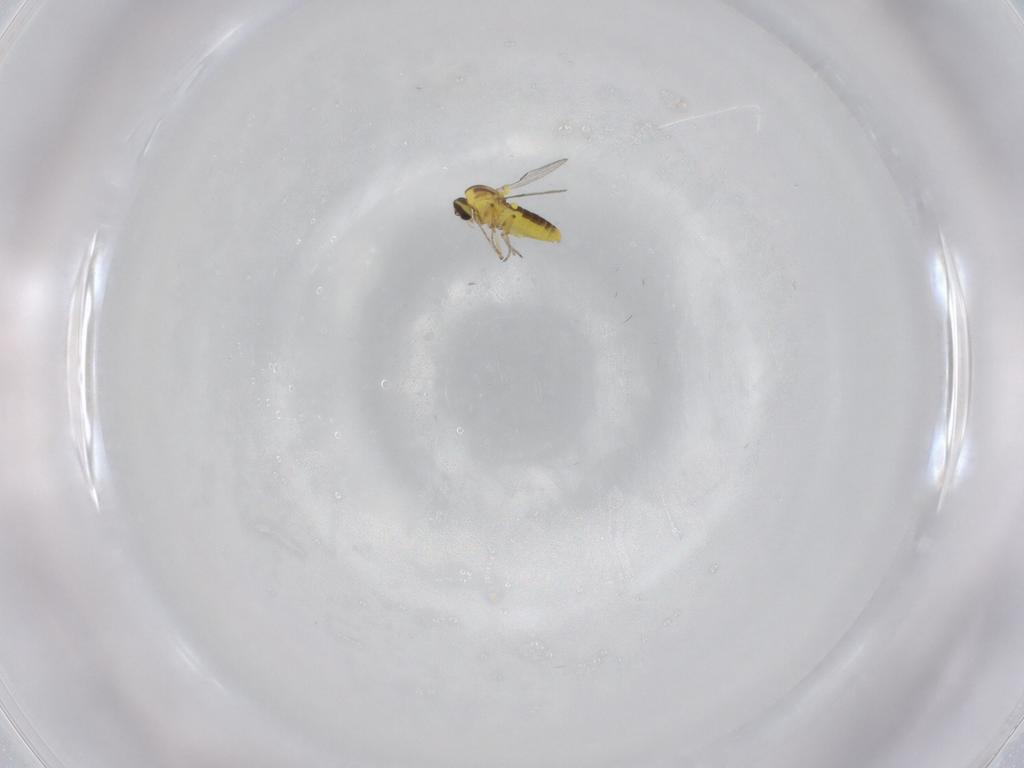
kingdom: Animalia
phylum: Arthropoda
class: Insecta
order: Diptera
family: Ceratopogonidae
